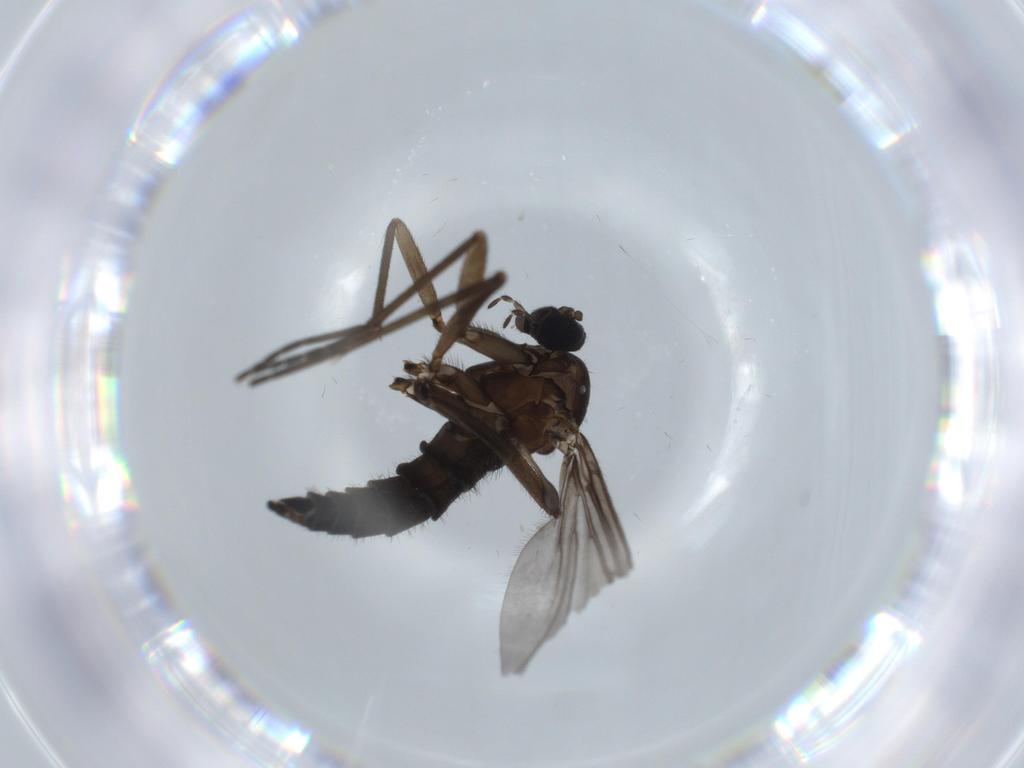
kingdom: Animalia
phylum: Arthropoda
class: Insecta
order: Diptera
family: Sciaridae
